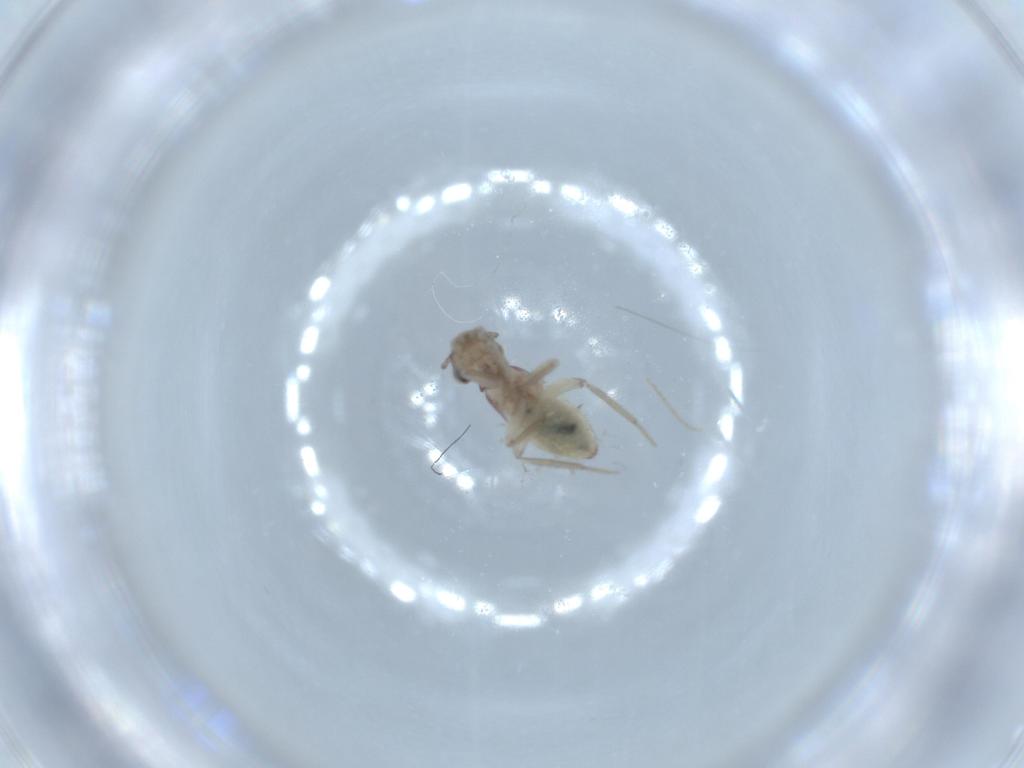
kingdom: Animalia
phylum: Arthropoda
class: Insecta
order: Psocodea
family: Lepidopsocidae
